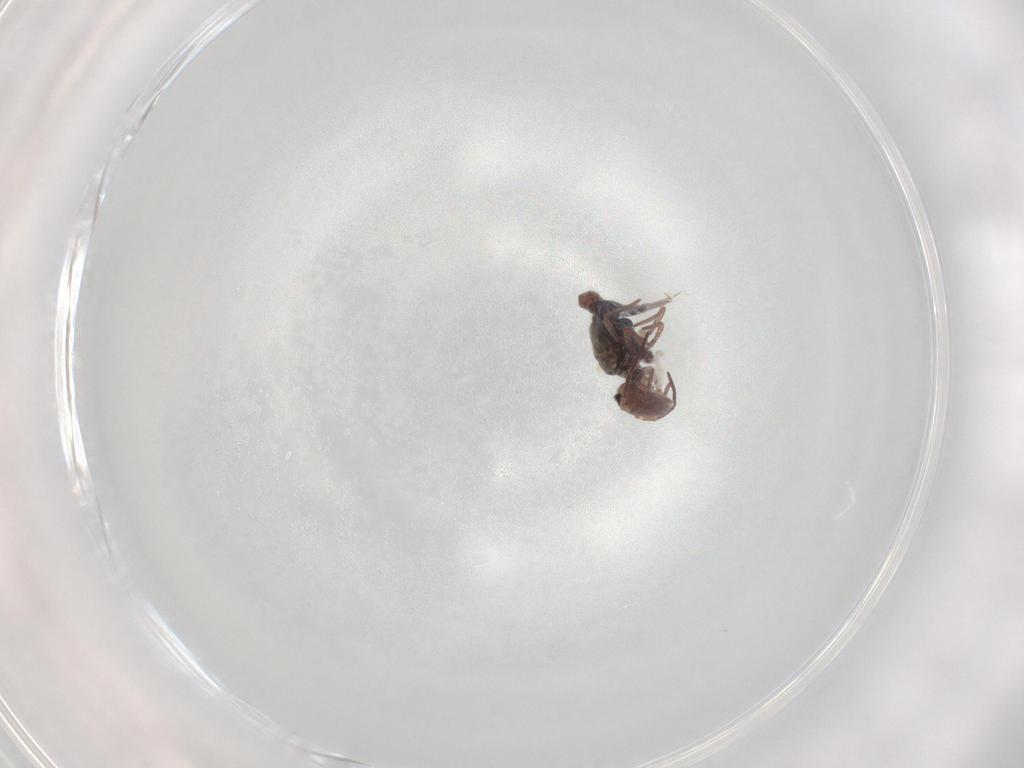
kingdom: Animalia
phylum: Arthropoda
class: Collembola
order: Symphypleona
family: Bourletiellidae
